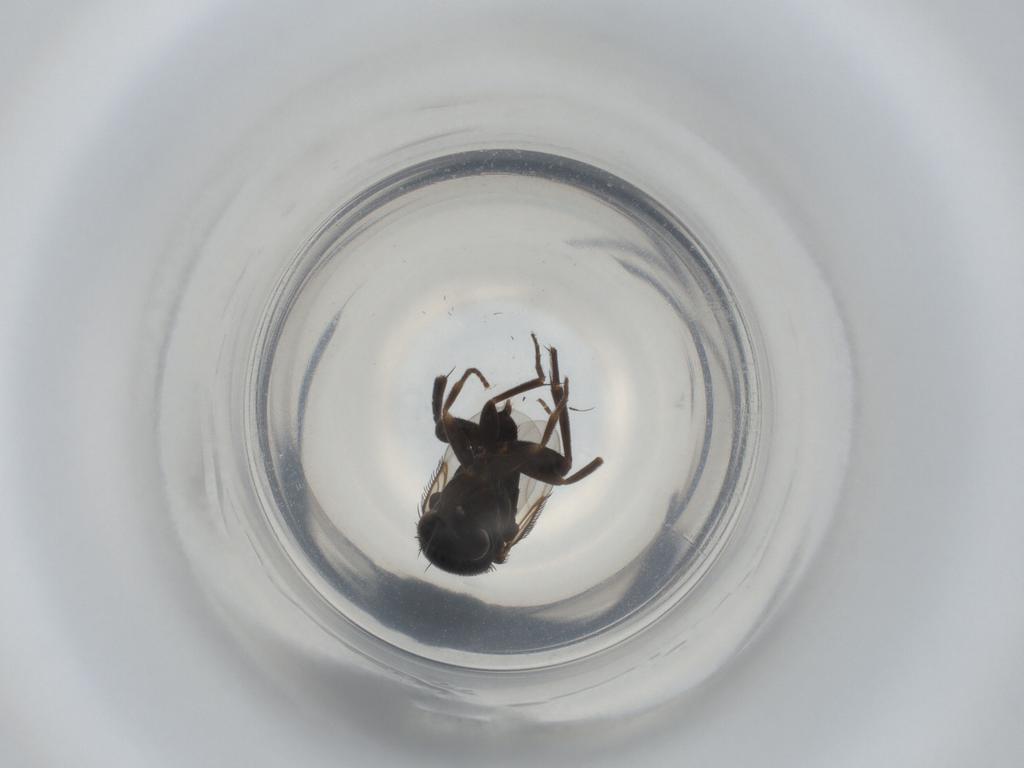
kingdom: Animalia
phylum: Arthropoda
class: Insecta
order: Diptera
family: Phoridae
